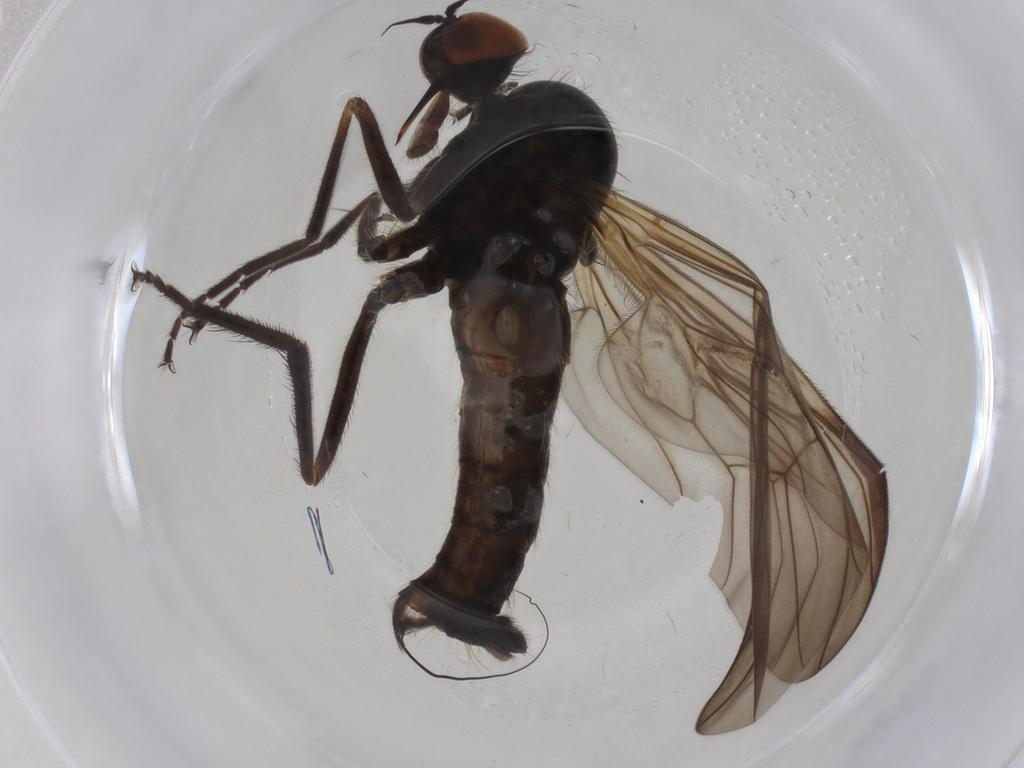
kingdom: Animalia
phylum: Arthropoda
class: Insecta
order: Diptera
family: Empididae
